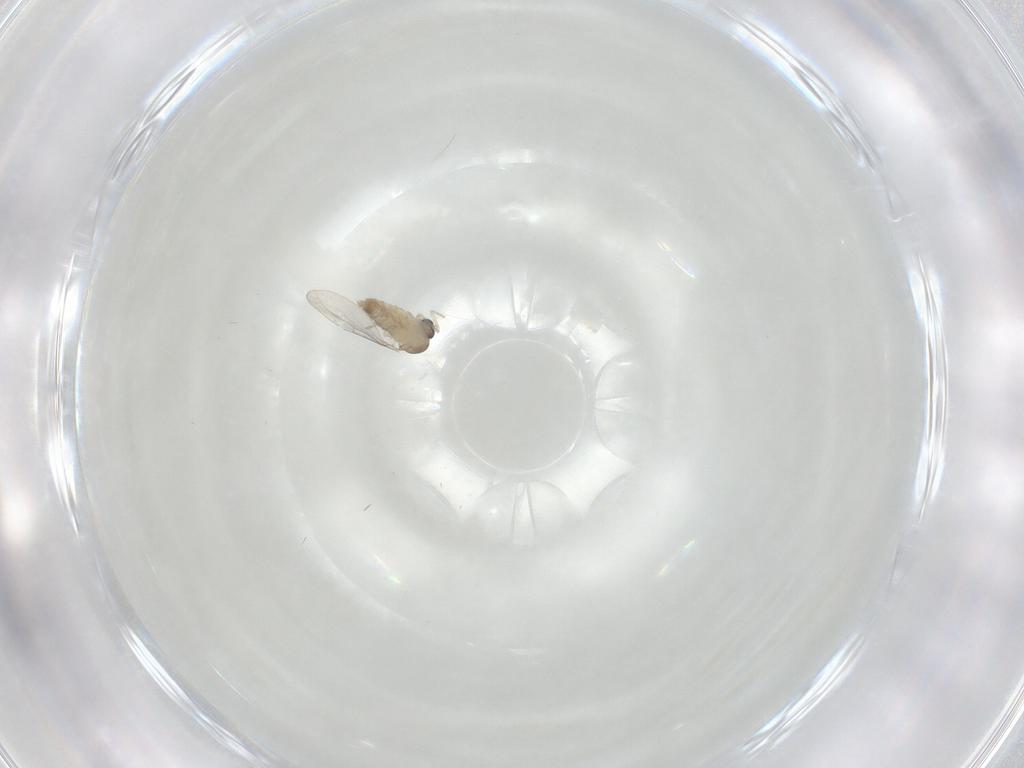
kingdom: Animalia
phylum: Arthropoda
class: Insecta
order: Diptera
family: Cecidomyiidae
